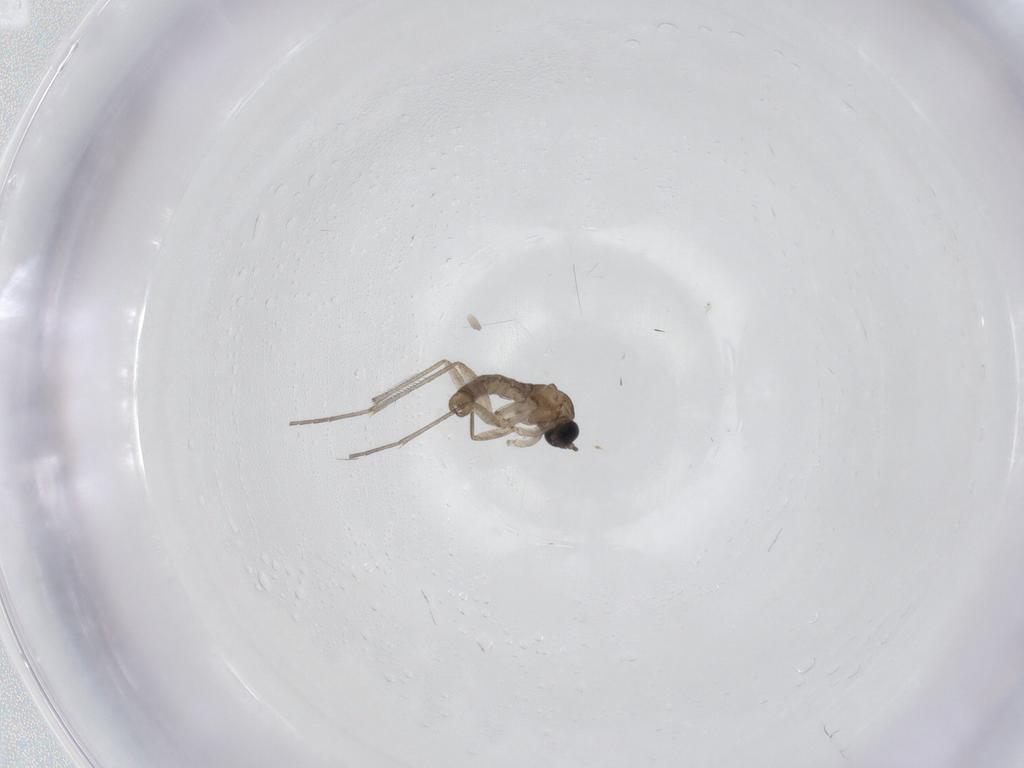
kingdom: Animalia
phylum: Arthropoda
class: Insecta
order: Diptera
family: Sciaridae
